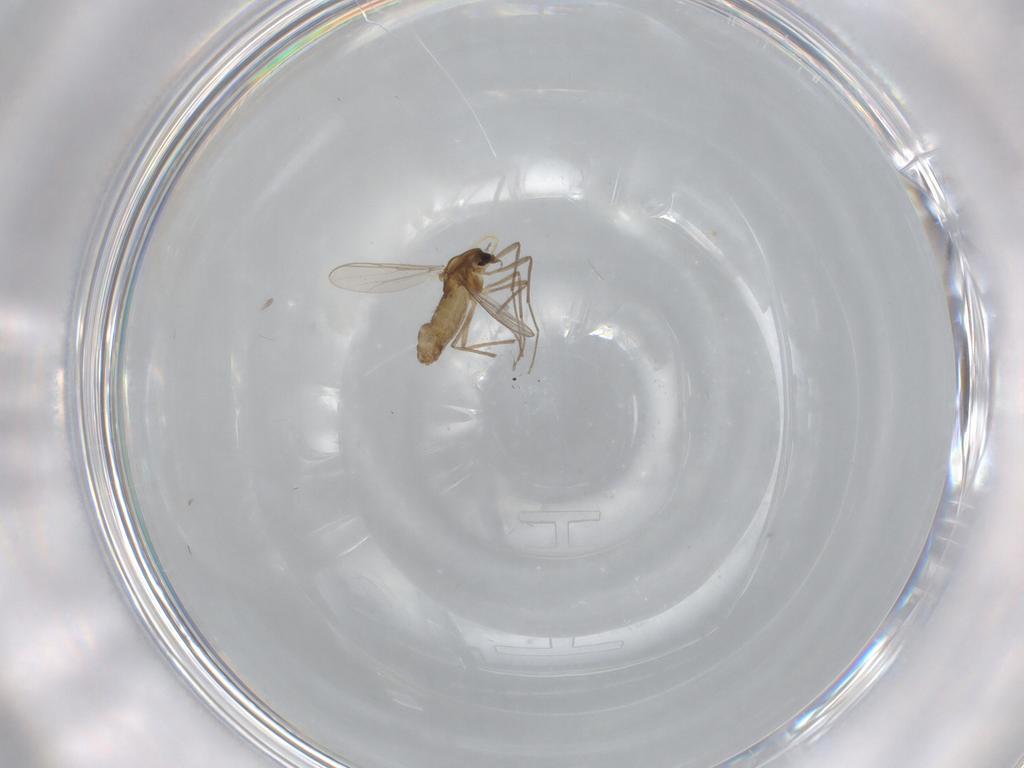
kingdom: Animalia
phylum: Arthropoda
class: Insecta
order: Diptera
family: Chironomidae
